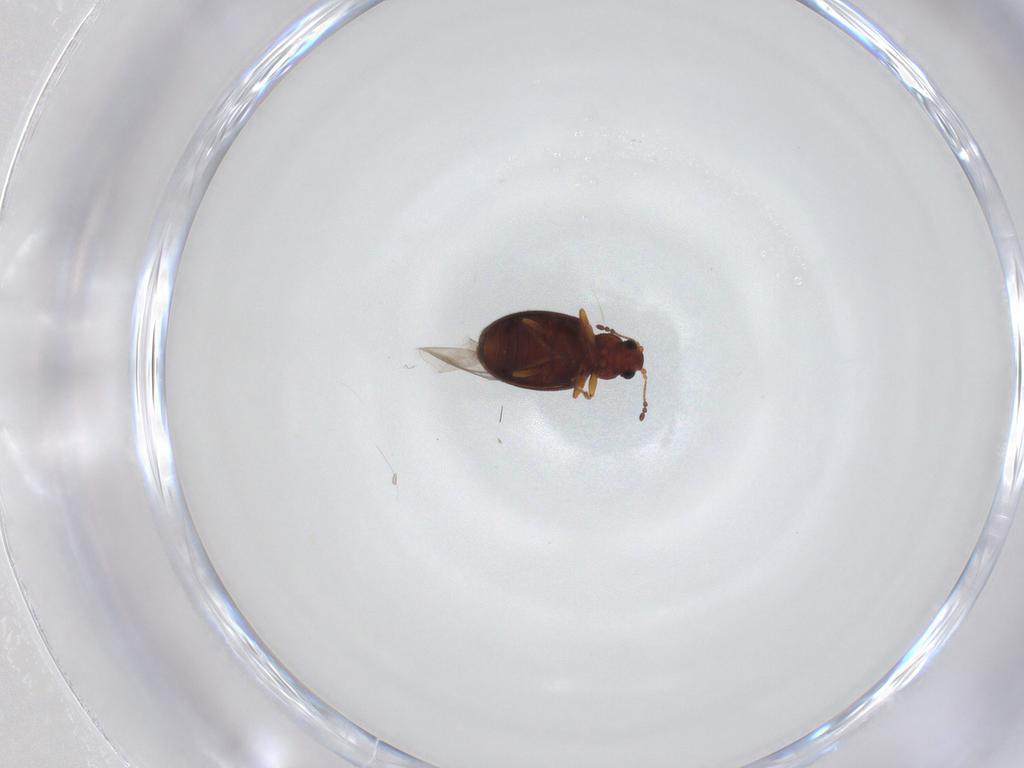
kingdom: Animalia
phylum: Arthropoda
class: Insecta
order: Coleoptera
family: Latridiidae
